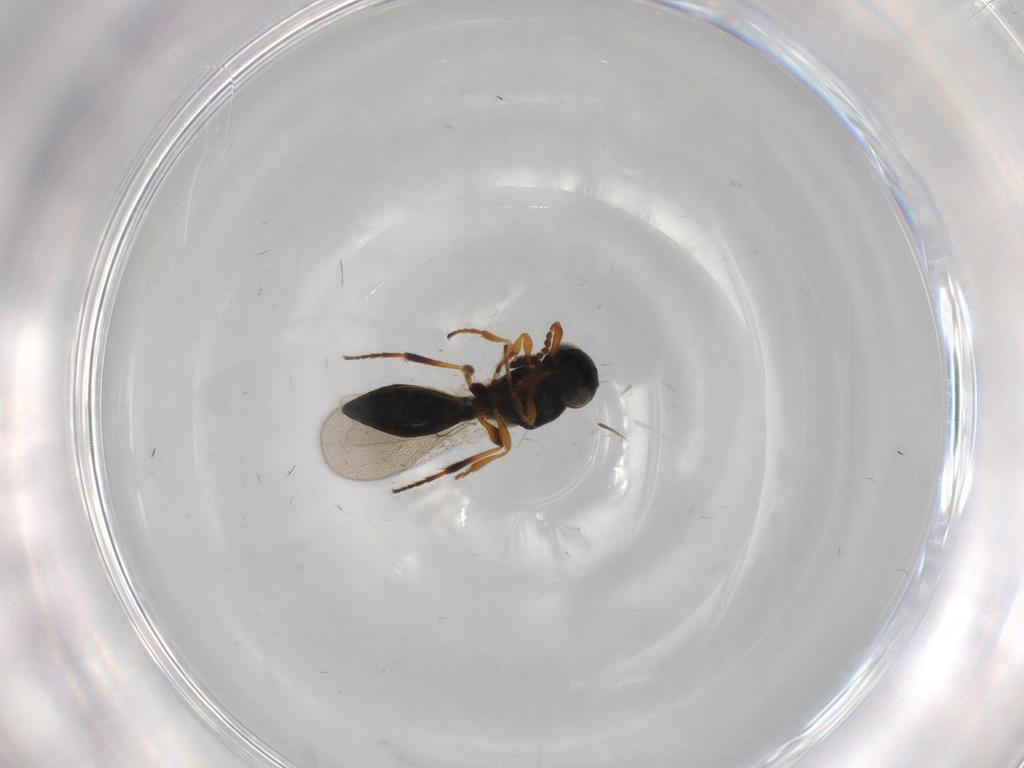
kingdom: Animalia
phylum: Arthropoda
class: Insecta
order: Hymenoptera
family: Platygastridae
